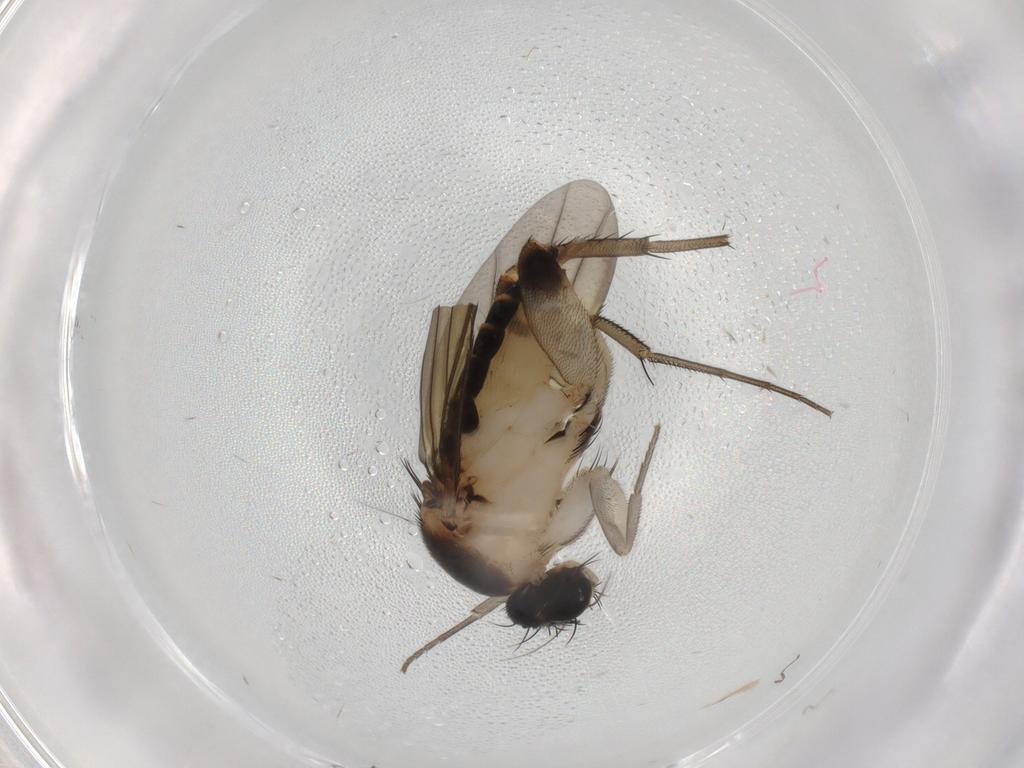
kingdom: Animalia
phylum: Arthropoda
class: Insecta
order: Diptera
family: Phoridae
